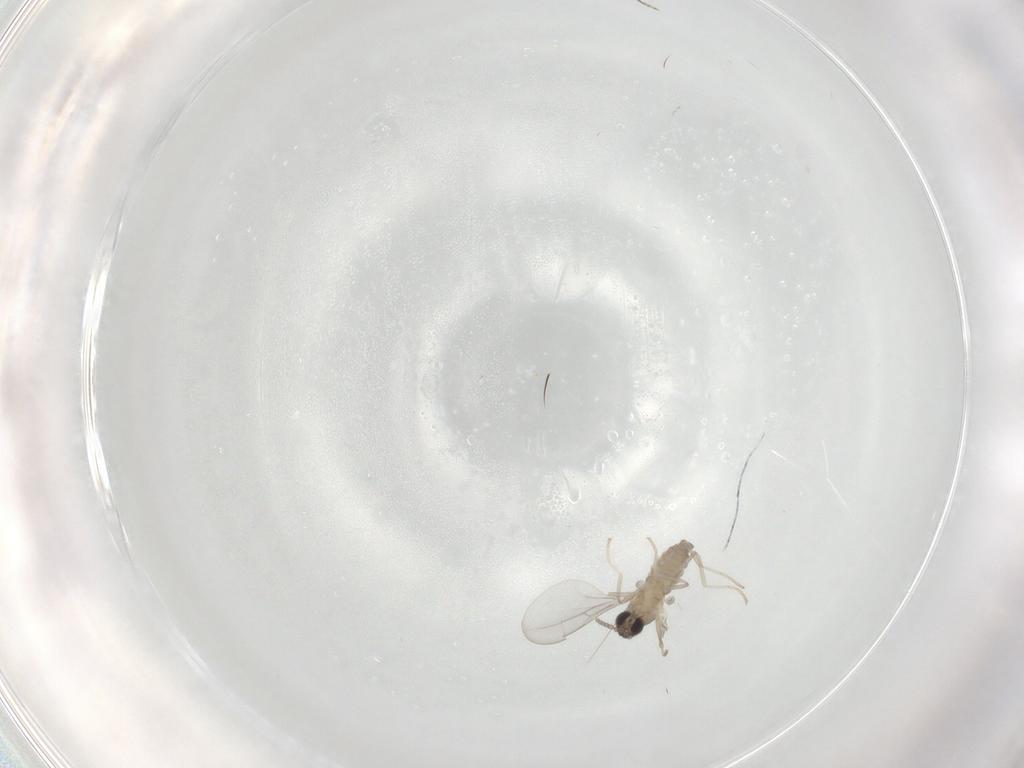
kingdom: Animalia
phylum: Arthropoda
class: Insecta
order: Diptera
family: Cecidomyiidae
